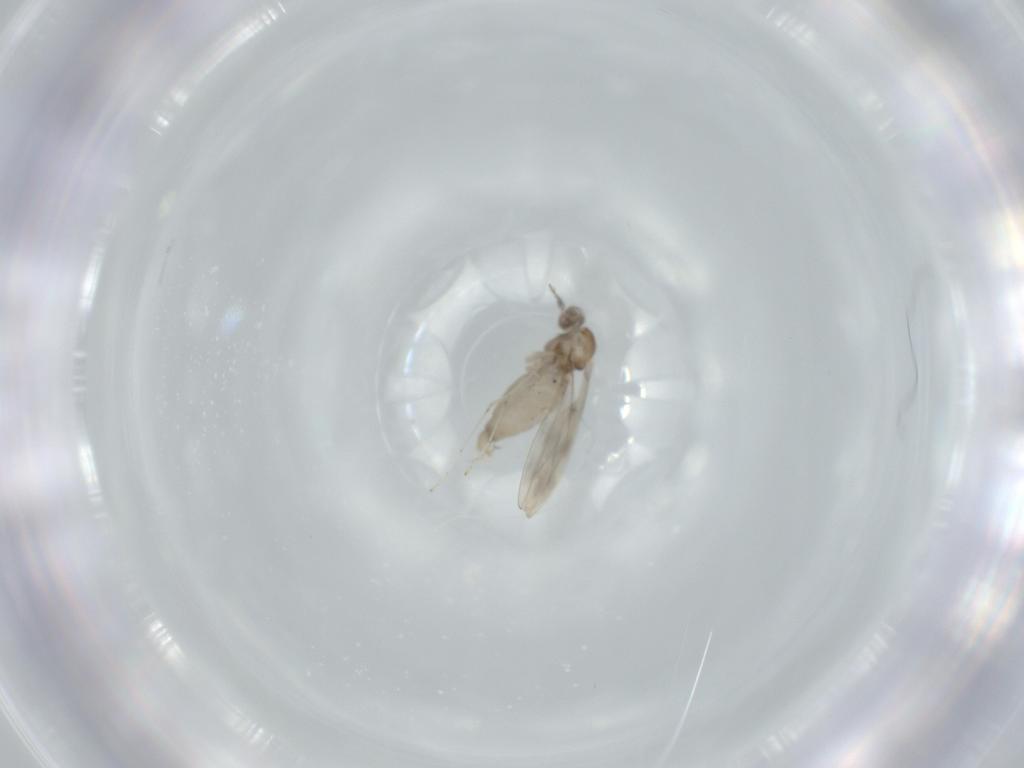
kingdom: Animalia
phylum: Arthropoda
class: Insecta
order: Diptera
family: Cecidomyiidae
